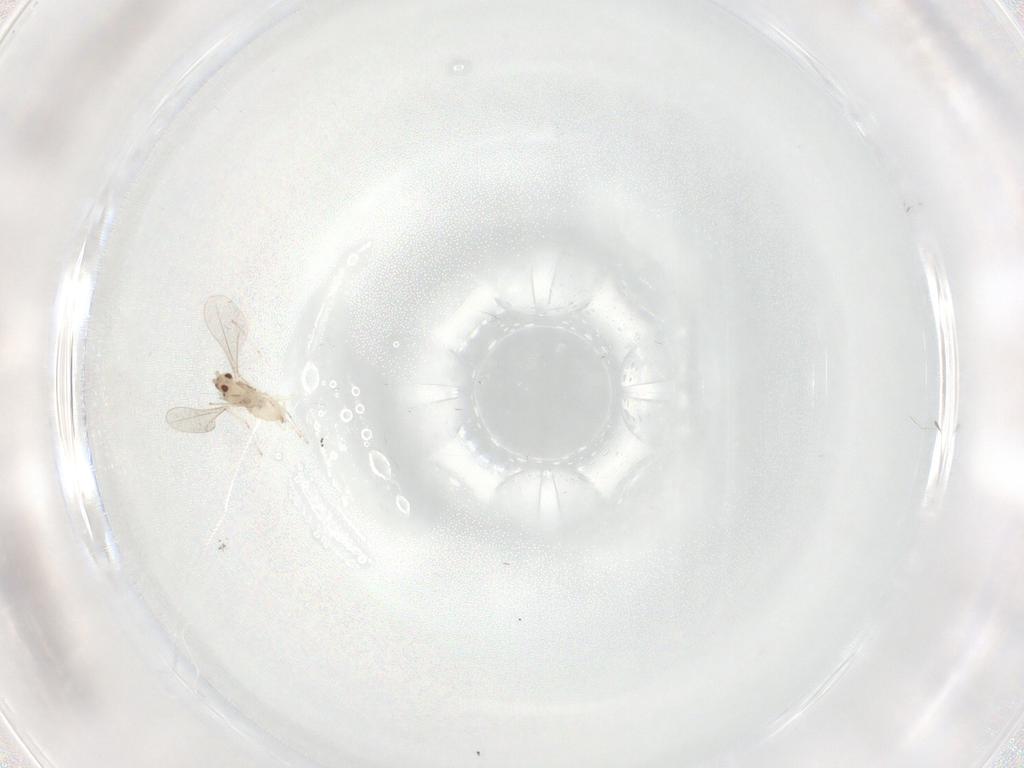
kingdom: Animalia
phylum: Arthropoda
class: Insecta
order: Diptera
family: Cecidomyiidae
